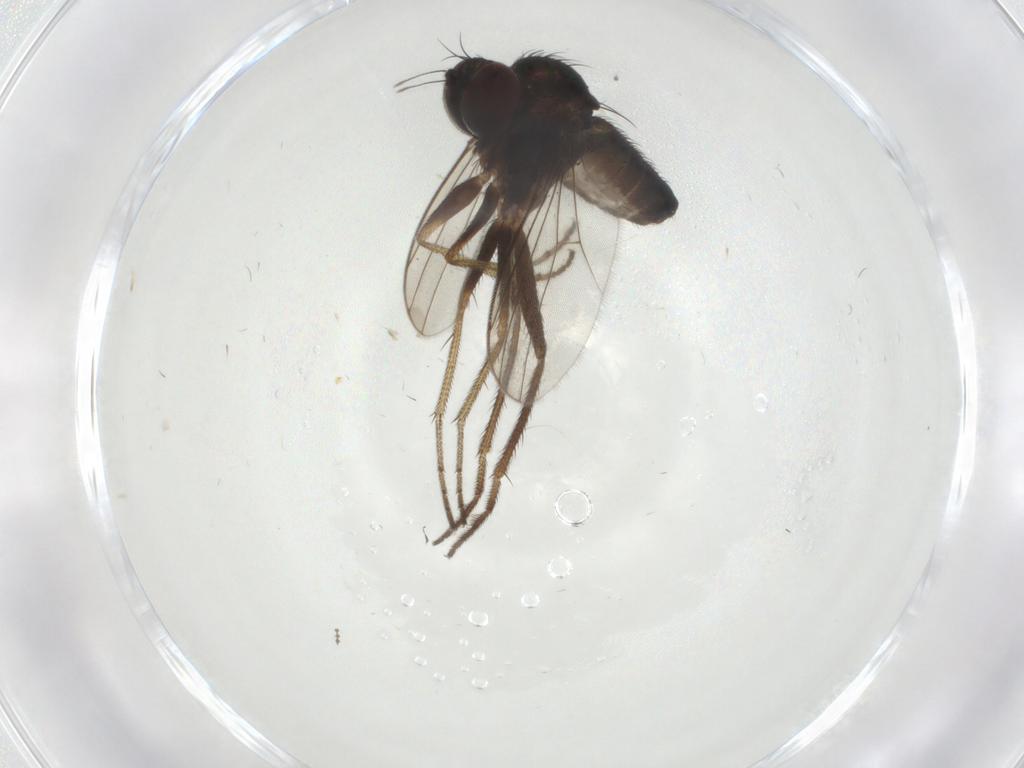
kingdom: Animalia
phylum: Arthropoda
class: Insecta
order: Diptera
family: Cecidomyiidae
